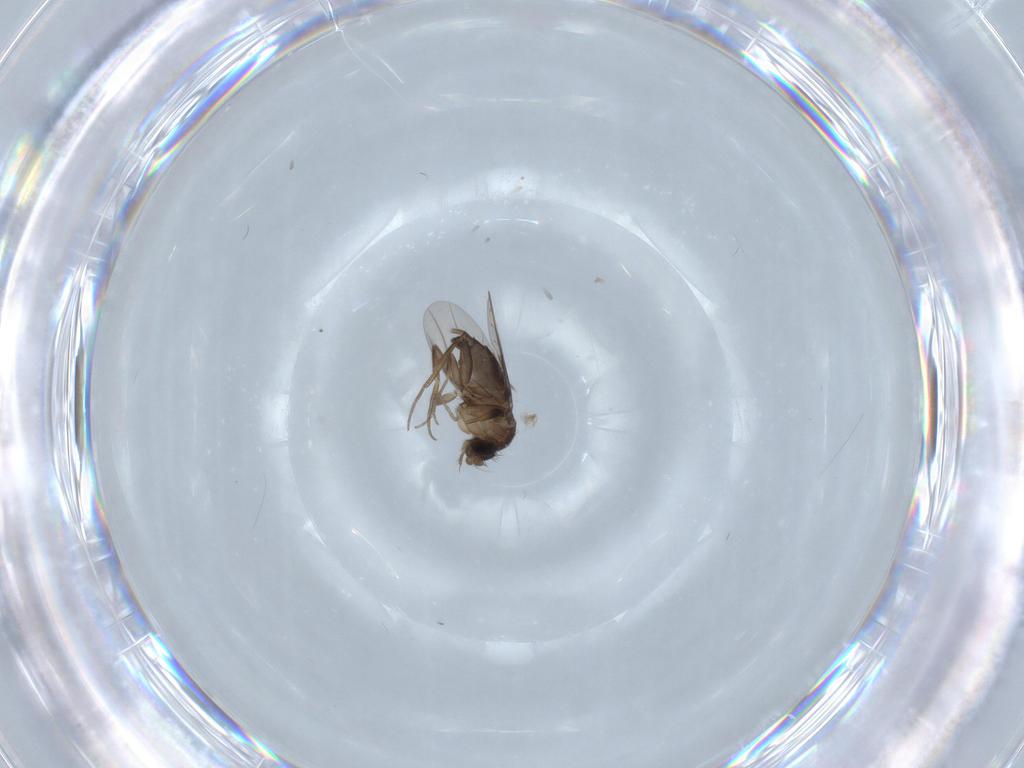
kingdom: Animalia
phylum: Arthropoda
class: Insecta
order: Diptera
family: Phoridae
